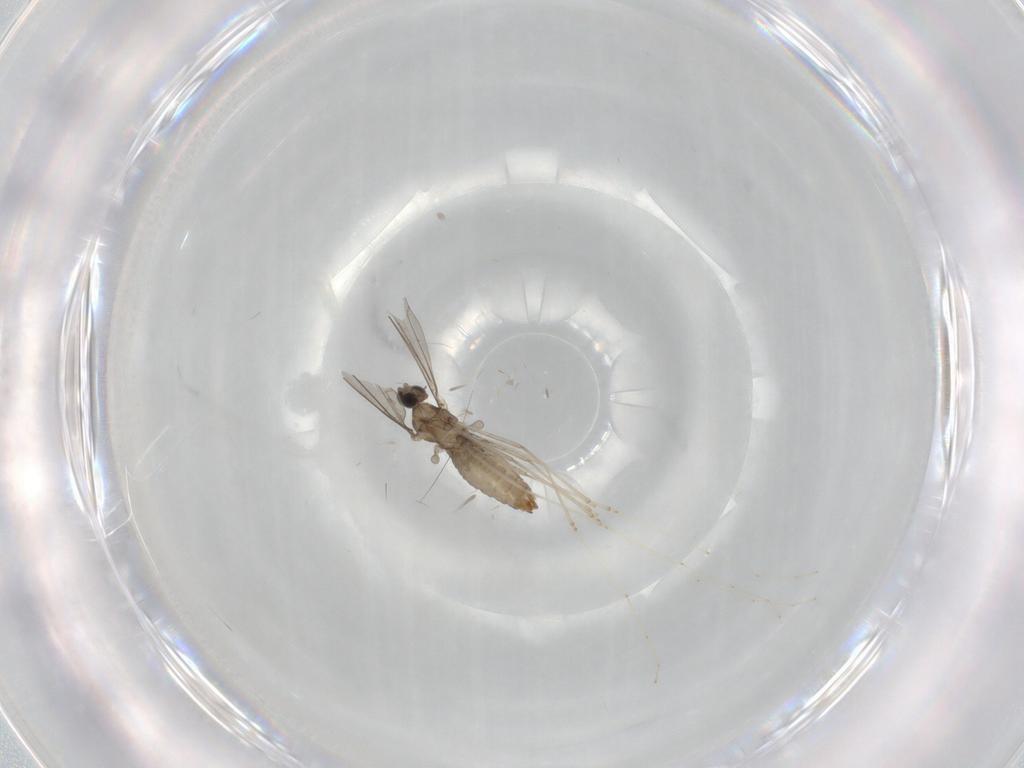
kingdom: Animalia
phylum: Arthropoda
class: Insecta
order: Diptera
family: Cecidomyiidae
